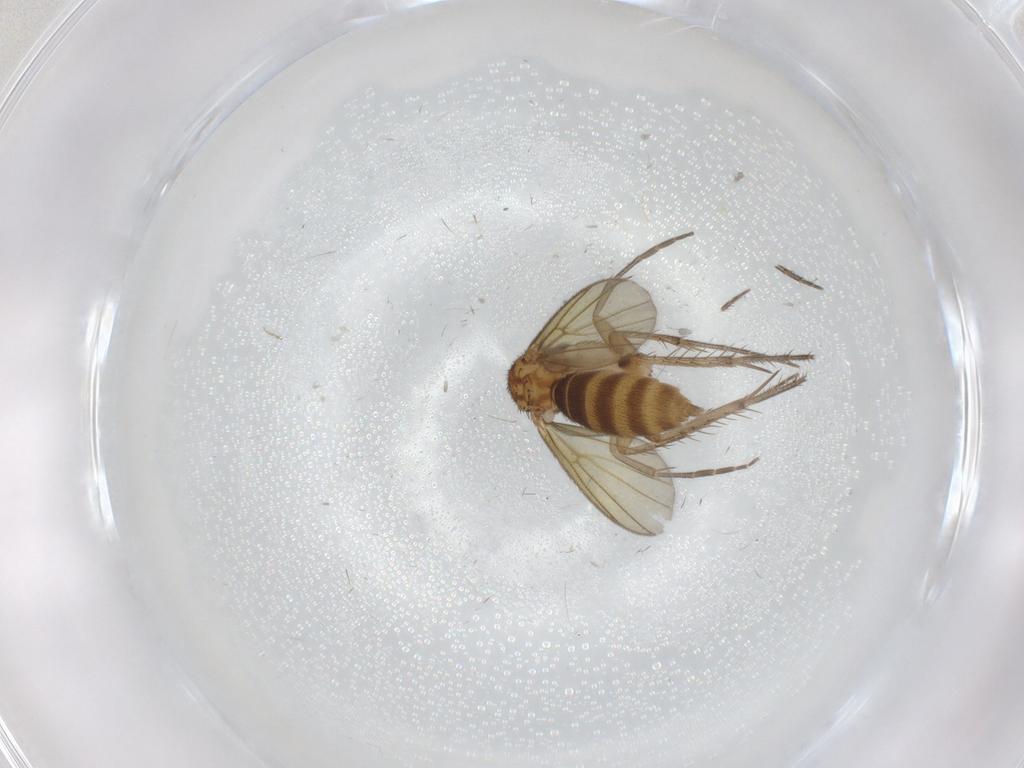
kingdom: Animalia
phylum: Arthropoda
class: Insecta
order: Diptera
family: Mycetophilidae
